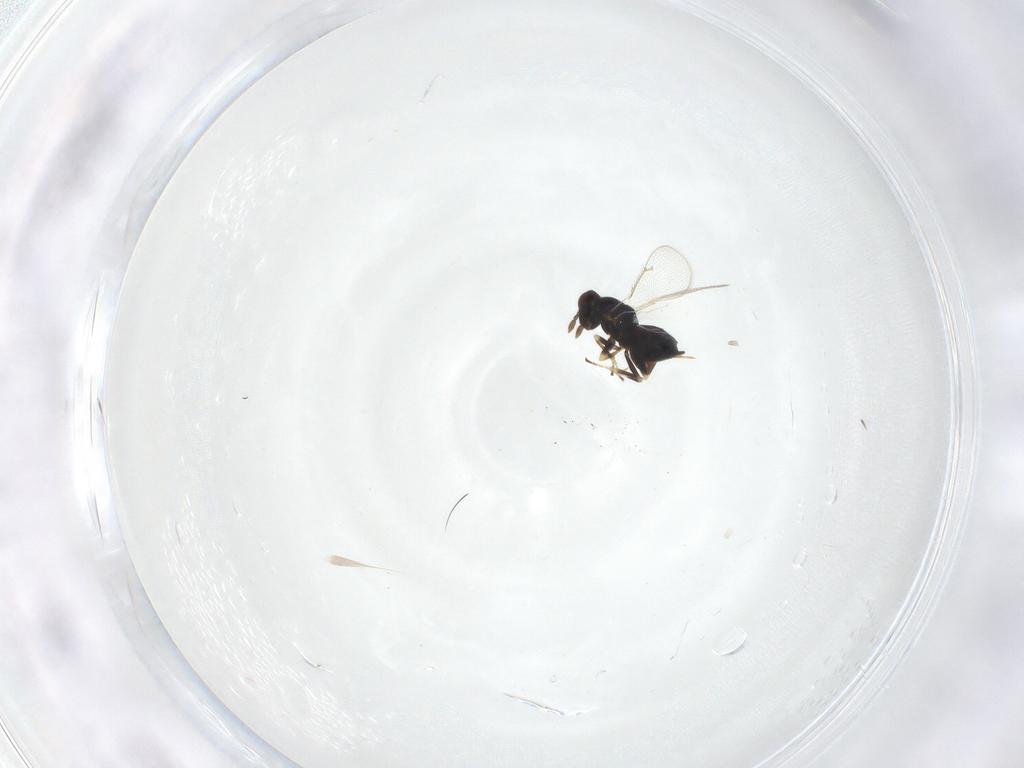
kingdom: Animalia
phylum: Arthropoda
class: Insecta
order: Hymenoptera
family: Eulophidae
